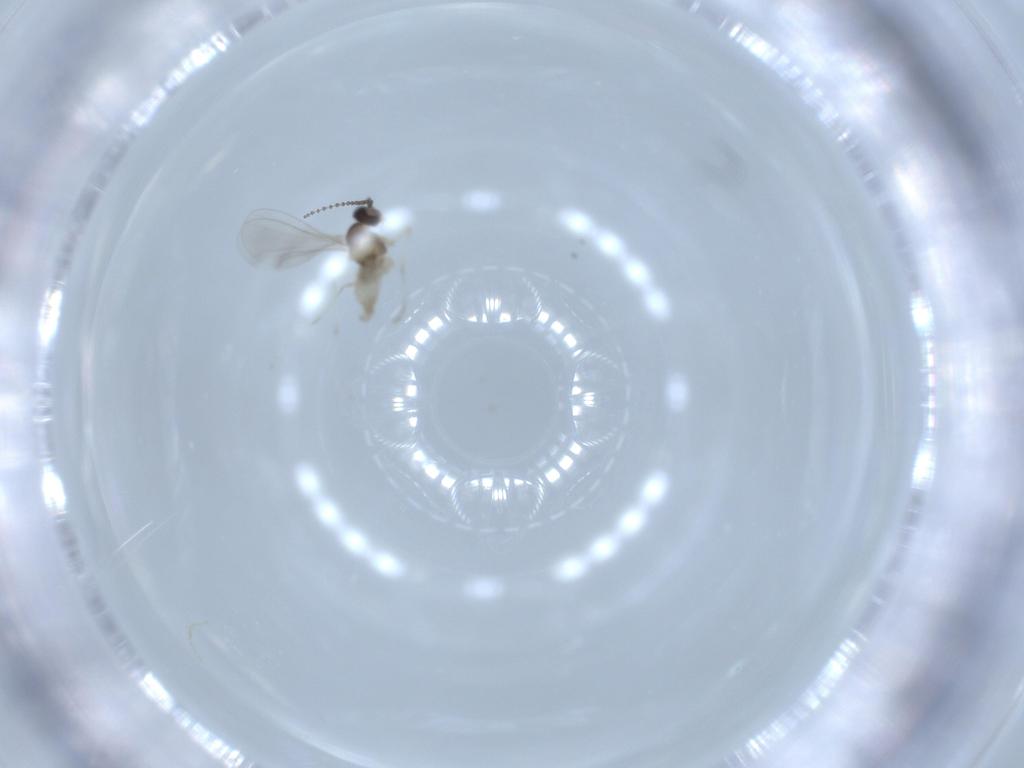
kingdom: Animalia
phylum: Arthropoda
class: Insecta
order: Diptera
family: Cecidomyiidae
